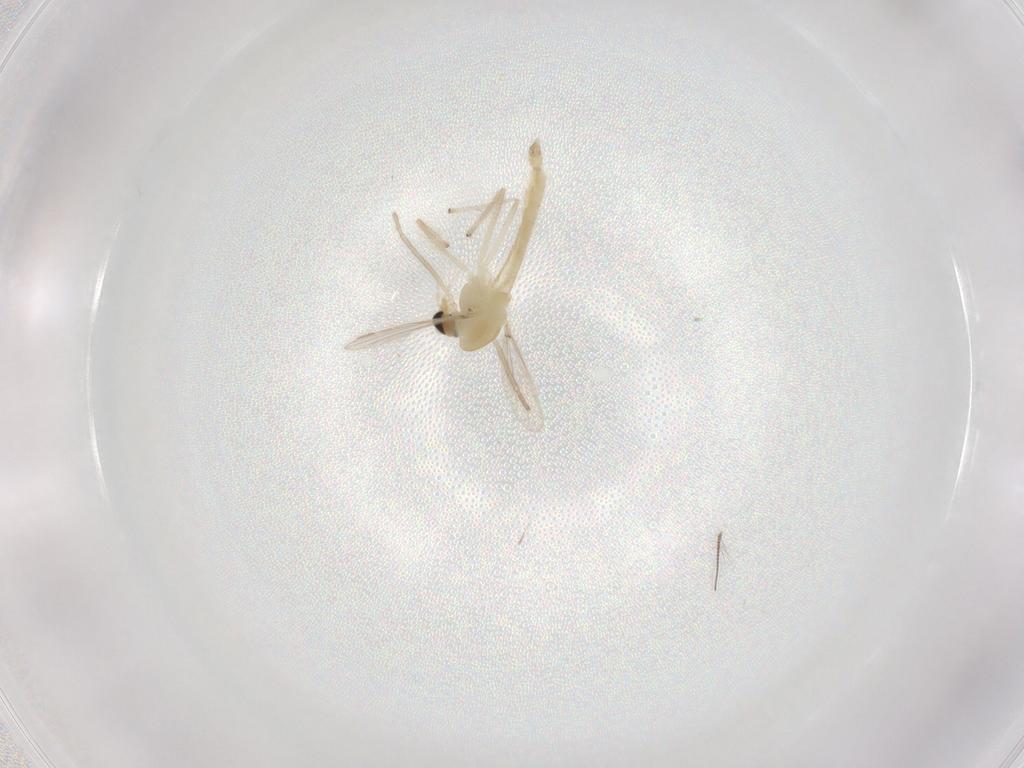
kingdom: Animalia
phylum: Arthropoda
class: Insecta
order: Diptera
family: Chironomidae
